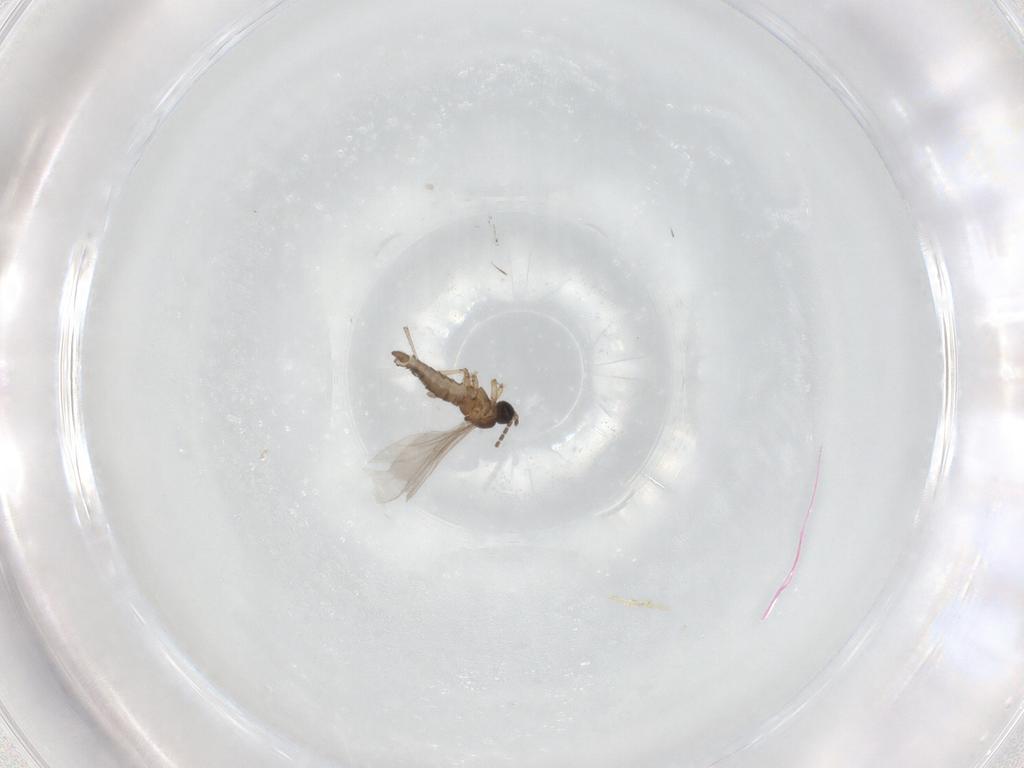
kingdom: Animalia
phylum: Arthropoda
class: Insecta
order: Diptera
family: Sciaridae
